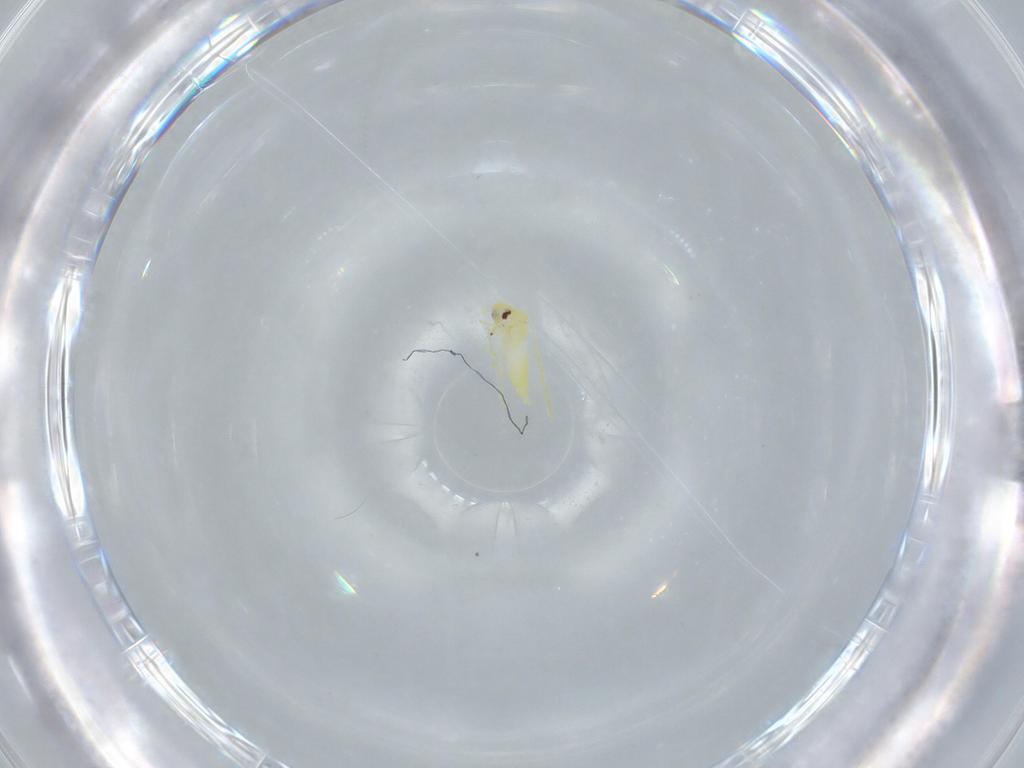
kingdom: Animalia
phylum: Arthropoda
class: Insecta
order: Hemiptera
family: Aleyrodidae
